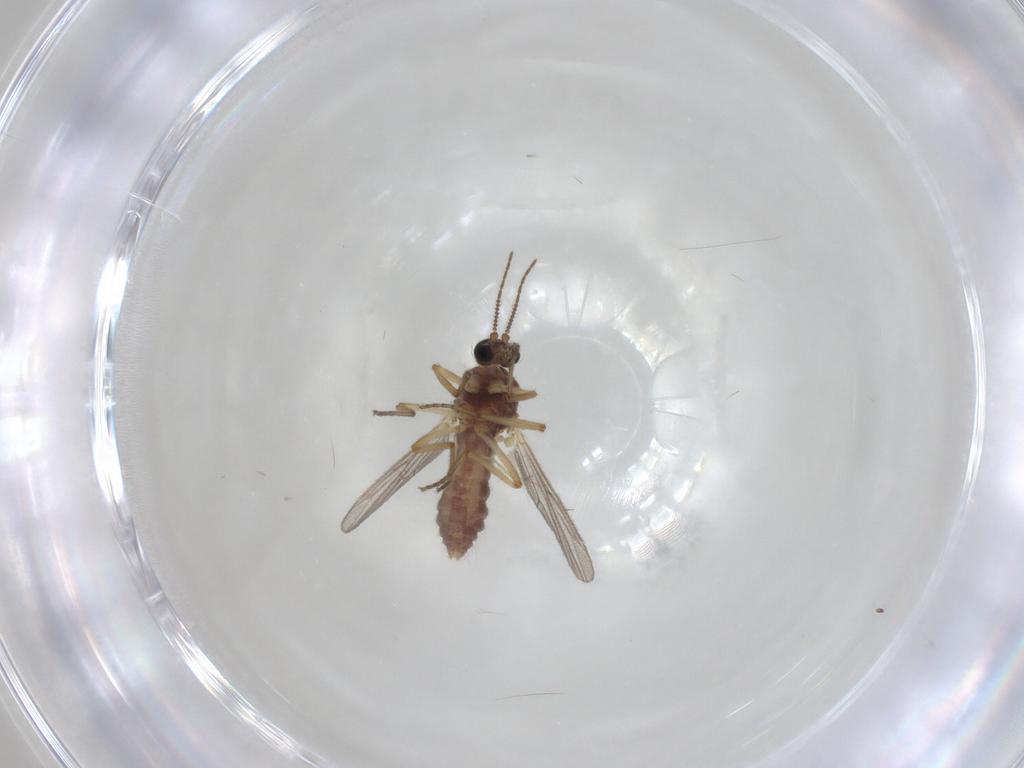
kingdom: Animalia
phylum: Arthropoda
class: Insecta
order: Diptera
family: Ceratopogonidae
